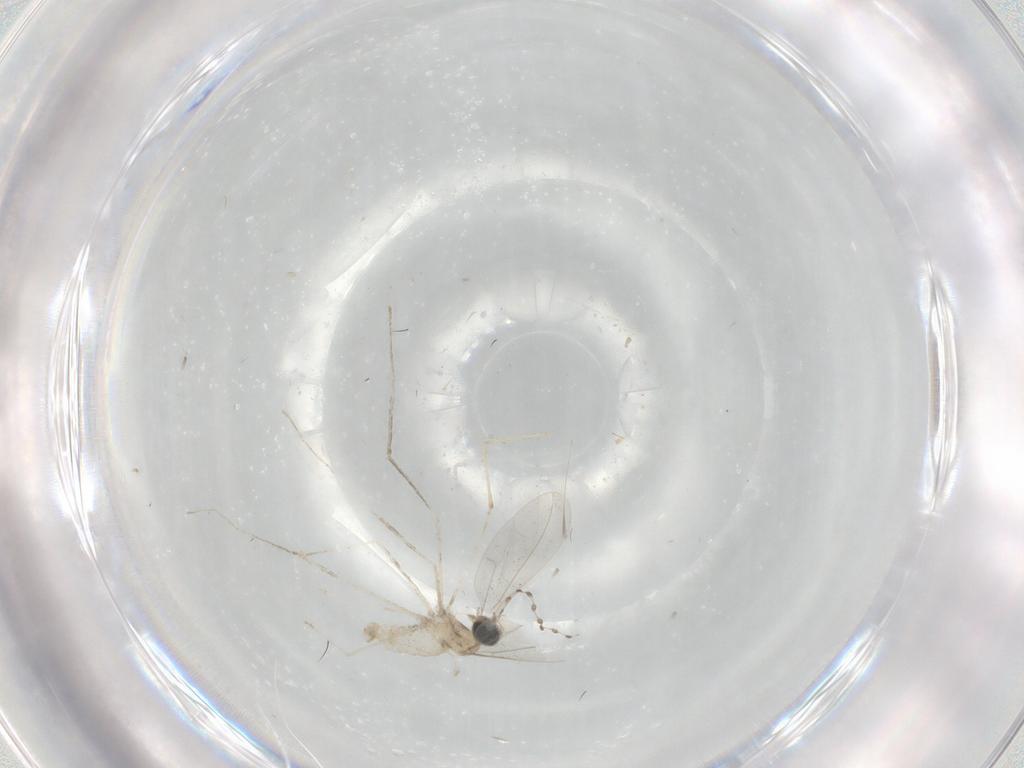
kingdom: Animalia
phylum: Arthropoda
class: Insecta
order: Diptera
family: Cecidomyiidae
